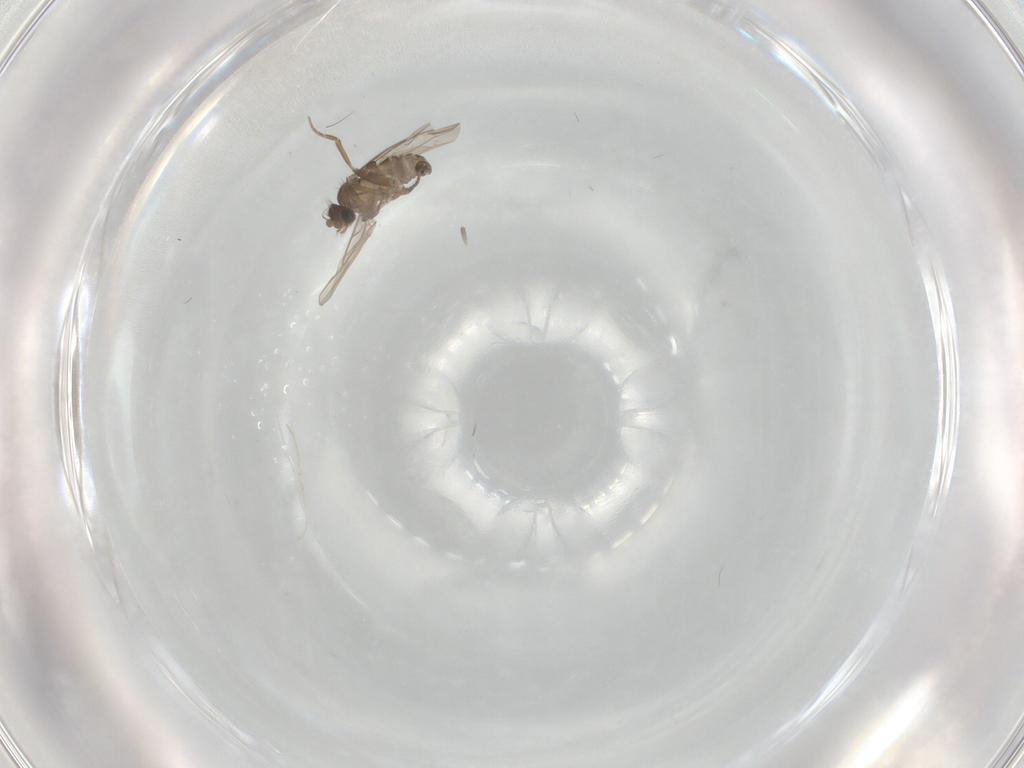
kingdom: Animalia
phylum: Arthropoda
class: Insecta
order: Diptera
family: Phoridae
